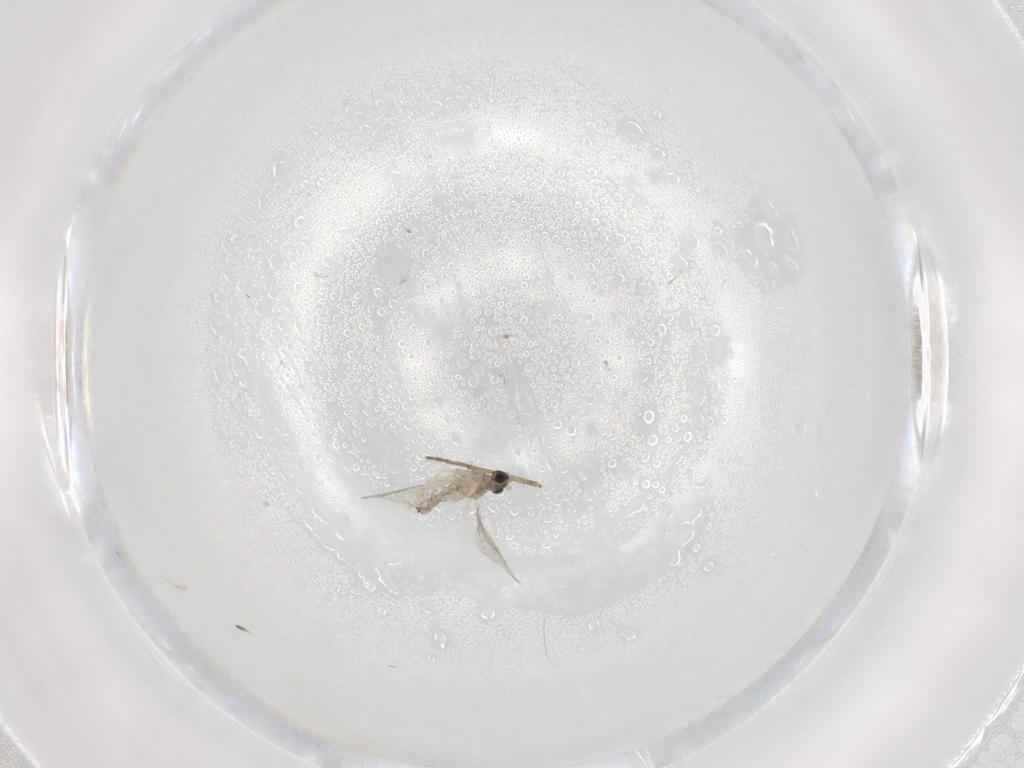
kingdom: Animalia
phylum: Arthropoda
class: Insecta
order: Diptera
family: Cecidomyiidae
